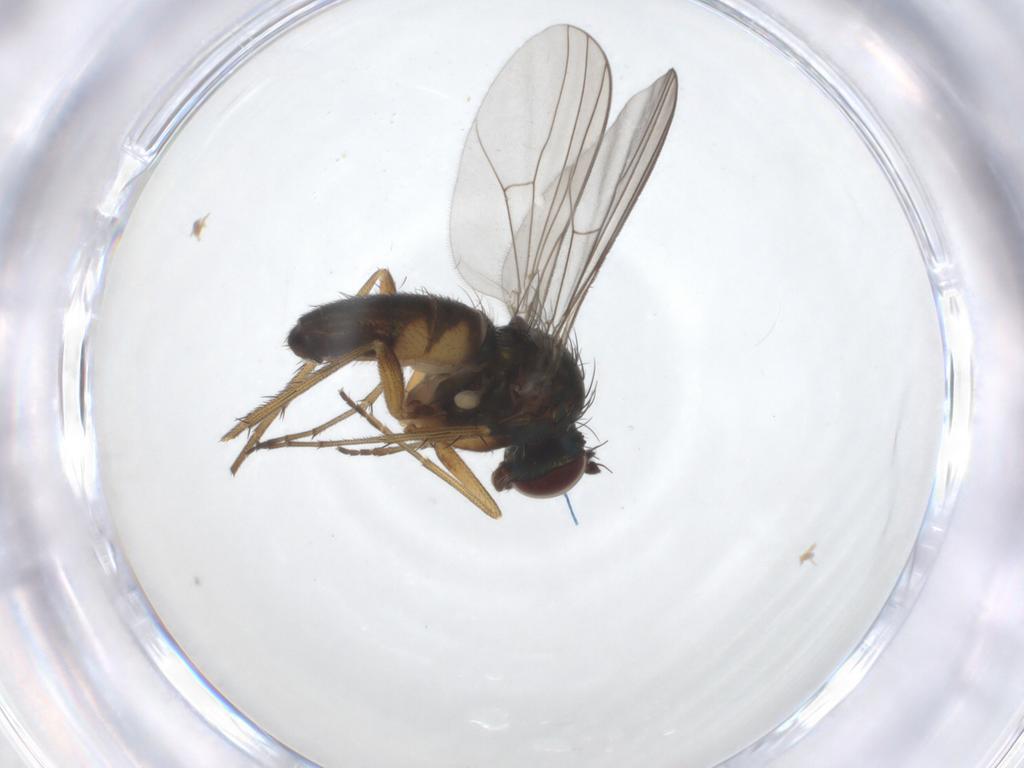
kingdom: Animalia
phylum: Arthropoda
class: Insecta
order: Diptera
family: Dolichopodidae
